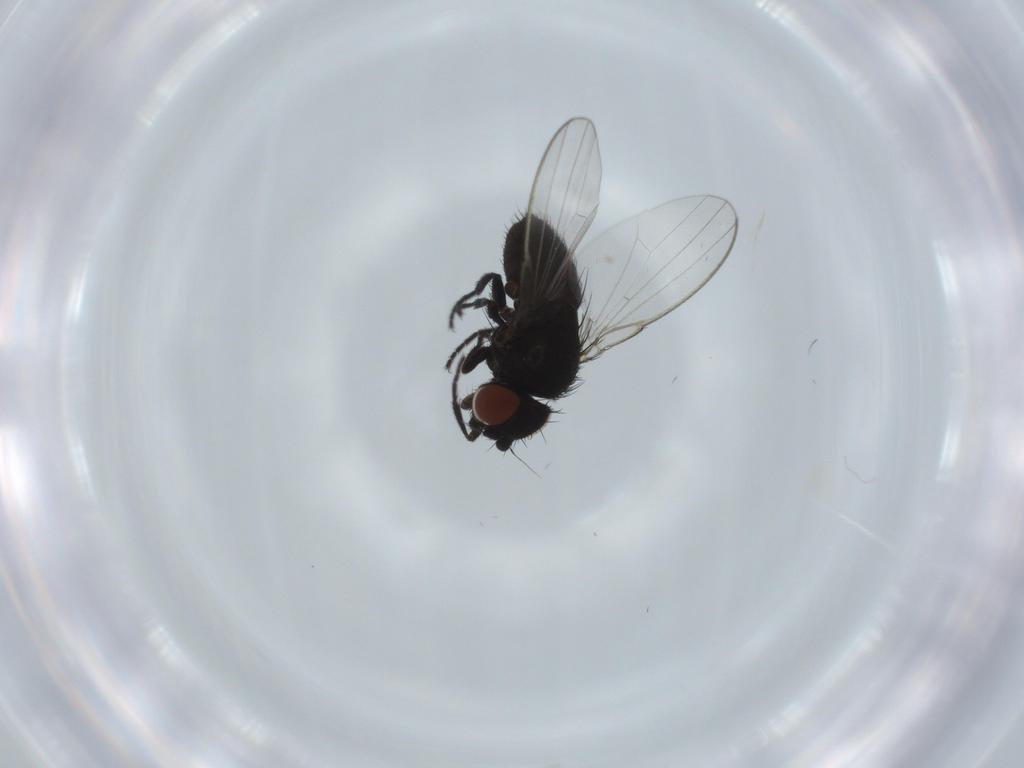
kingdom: Animalia
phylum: Arthropoda
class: Insecta
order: Diptera
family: Milichiidae
